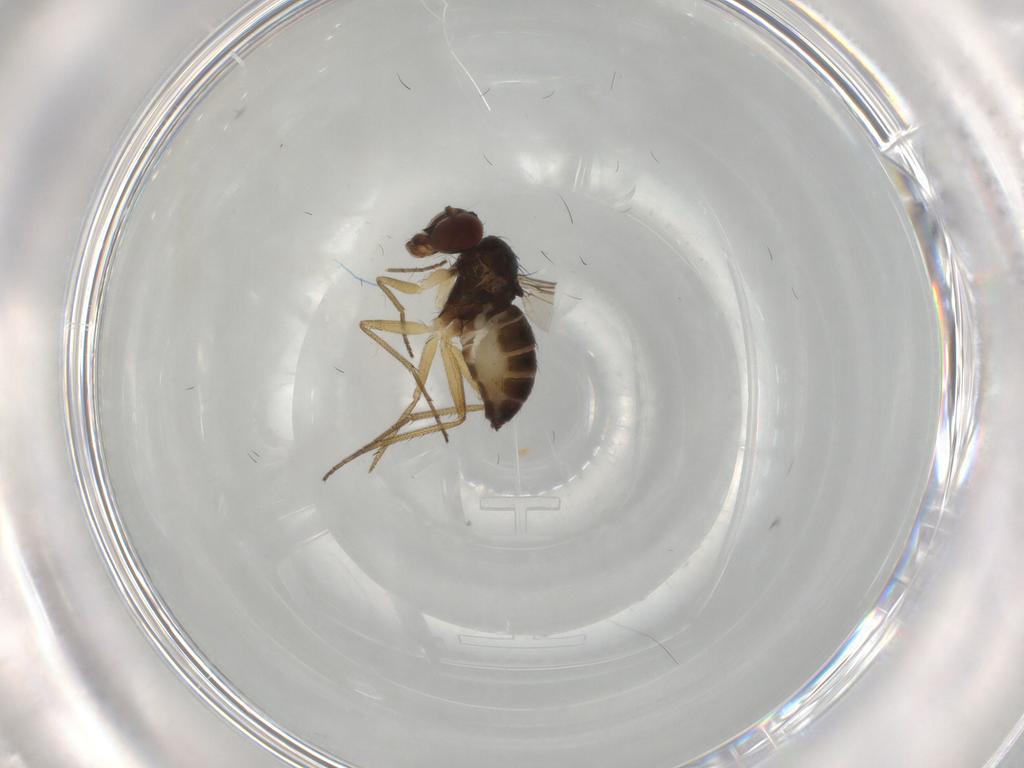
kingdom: Animalia
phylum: Arthropoda
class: Insecta
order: Diptera
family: Dolichopodidae
